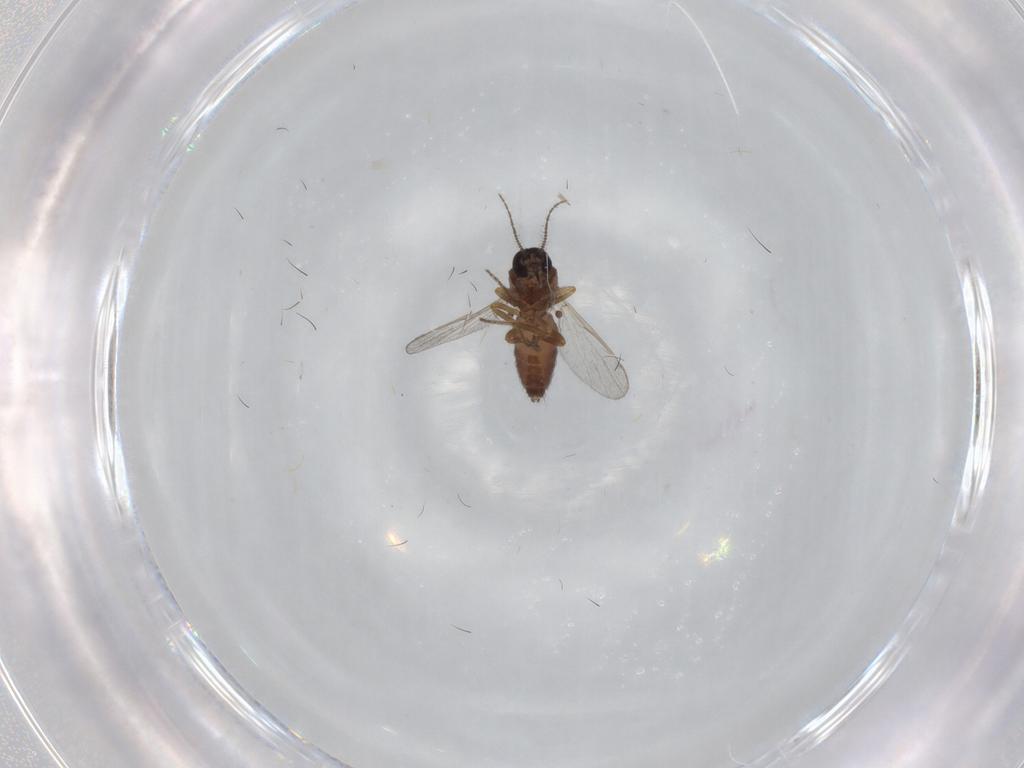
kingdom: Animalia
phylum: Arthropoda
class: Insecta
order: Diptera
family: Ceratopogonidae
